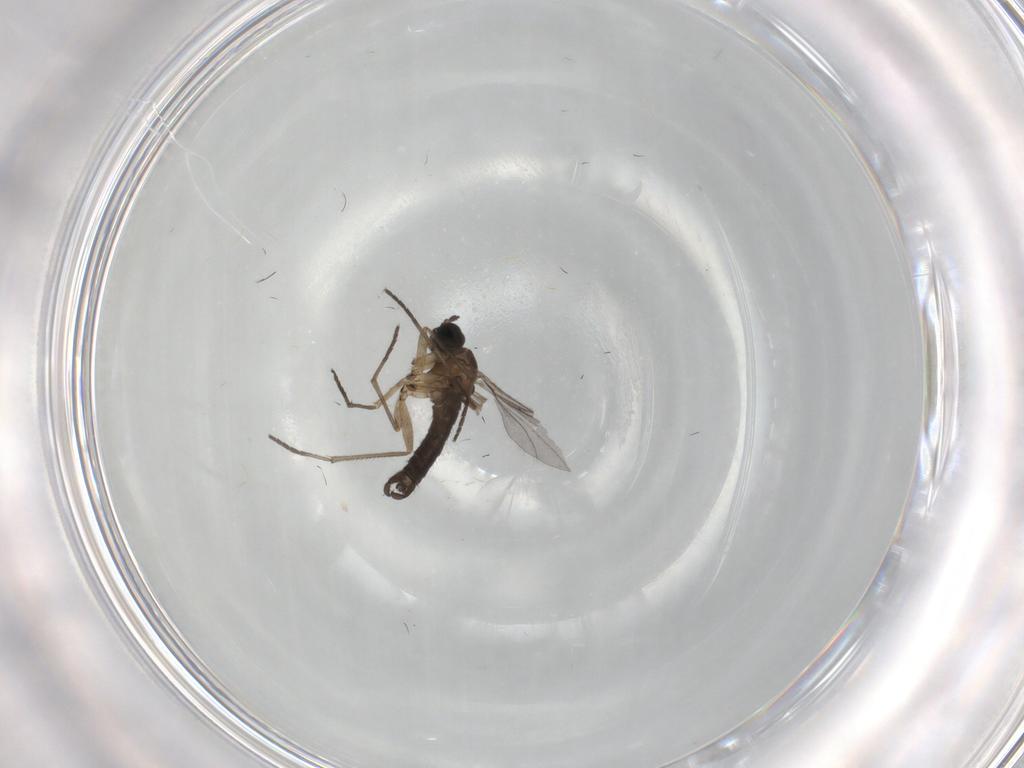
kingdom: Animalia
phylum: Arthropoda
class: Insecta
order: Diptera
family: Sciaridae
